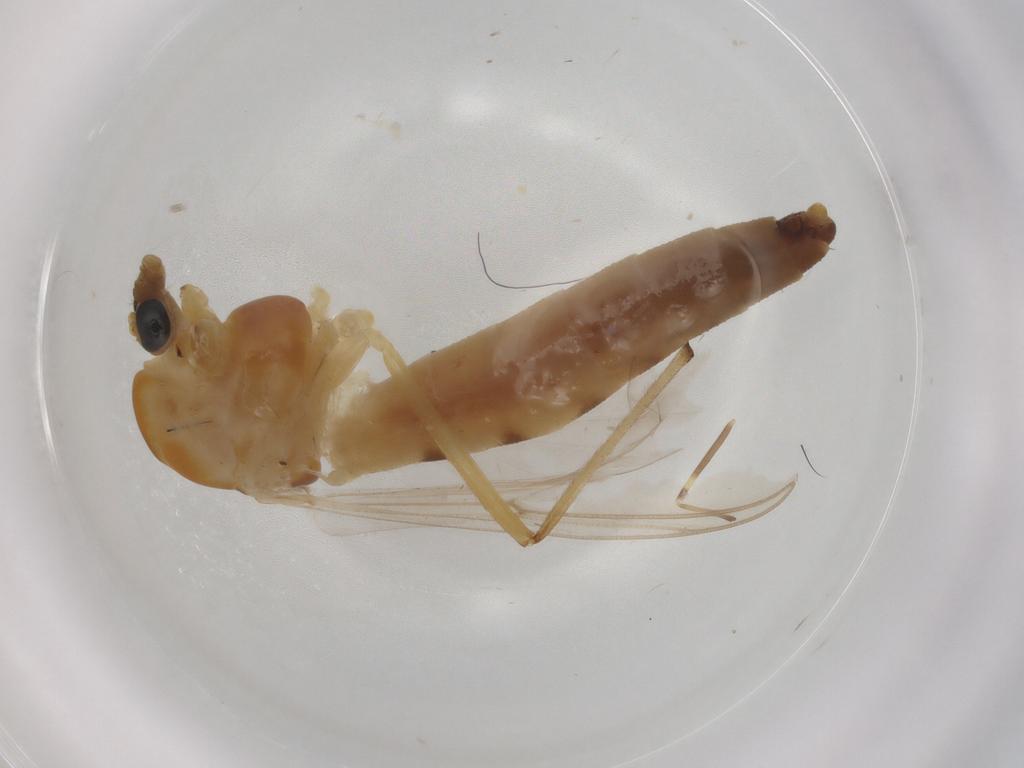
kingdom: Animalia
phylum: Arthropoda
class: Insecta
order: Diptera
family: Chironomidae
